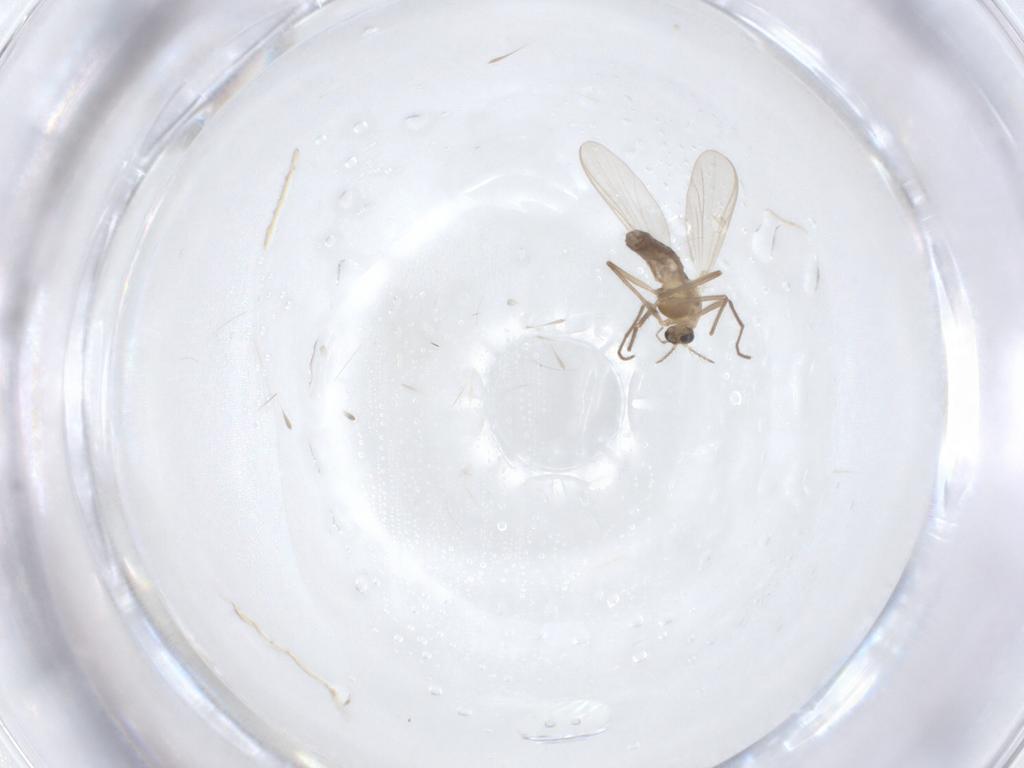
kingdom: Animalia
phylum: Arthropoda
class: Insecta
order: Diptera
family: Chironomidae
